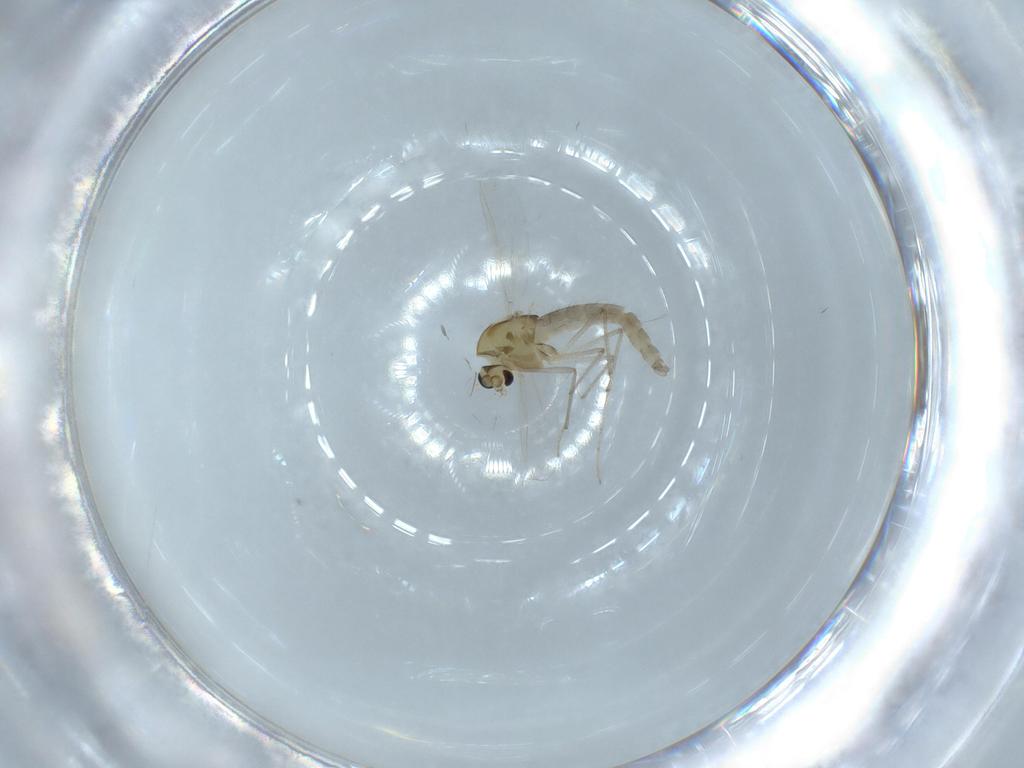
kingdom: Animalia
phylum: Arthropoda
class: Insecta
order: Diptera
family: Chironomidae
